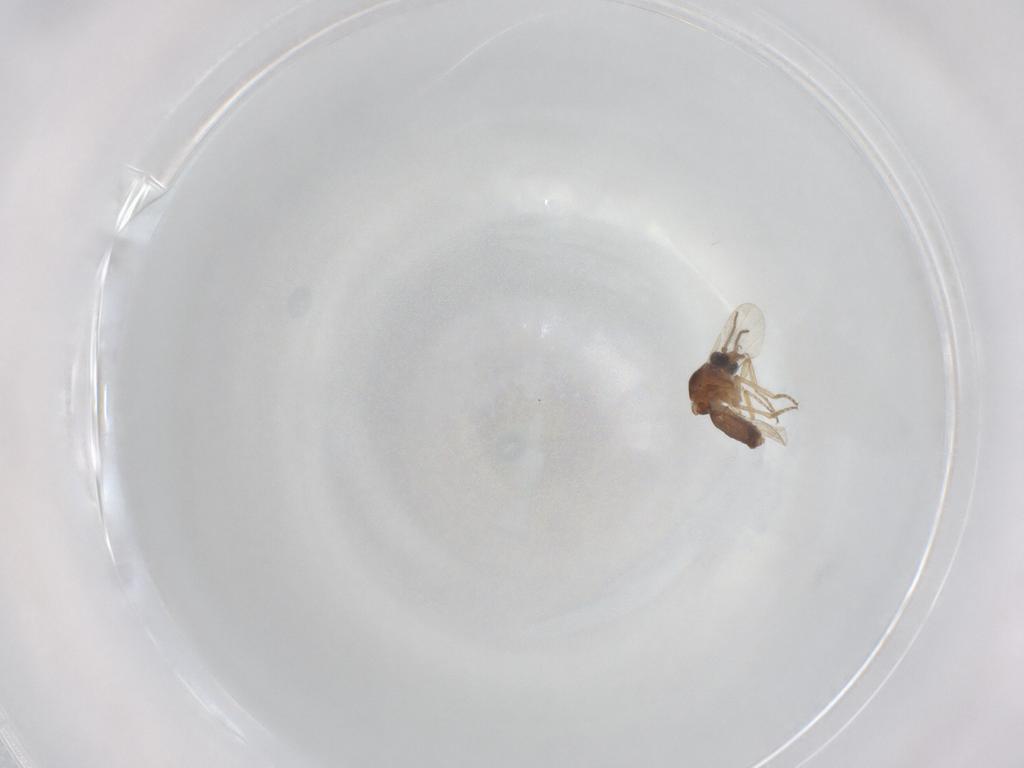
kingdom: Animalia
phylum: Arthropoda
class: Insecta
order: Diptera
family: Ceratopogonidae
